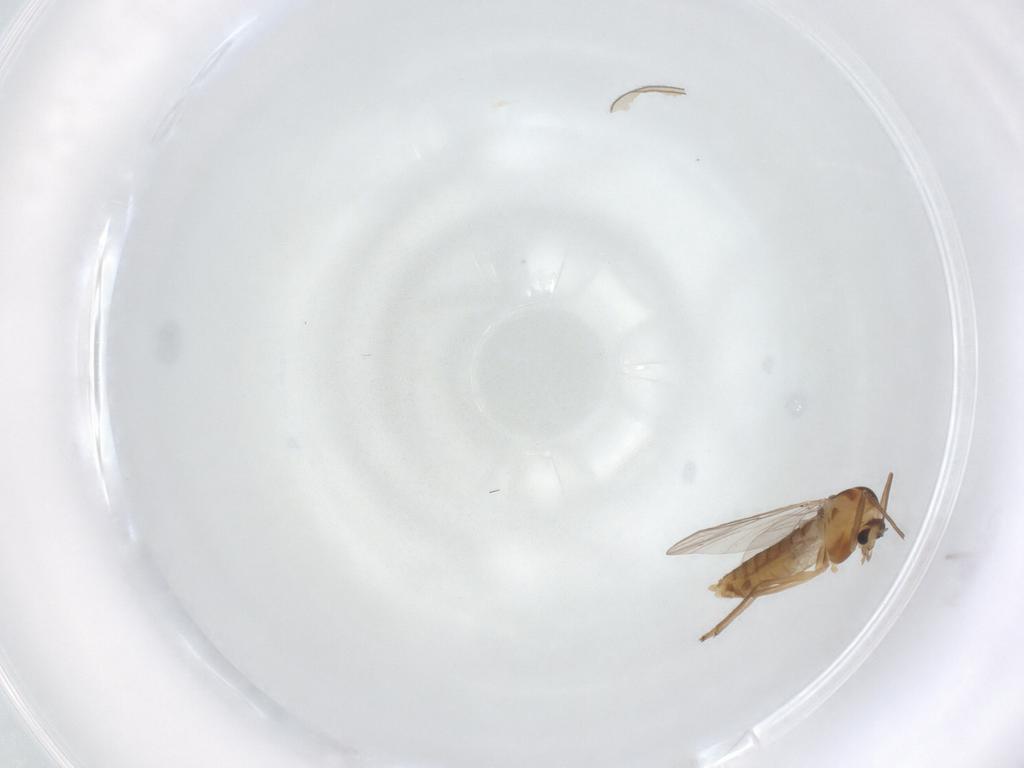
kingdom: Animalia
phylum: Arthropoda
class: Insecta
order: Diptera
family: Chironomidae
